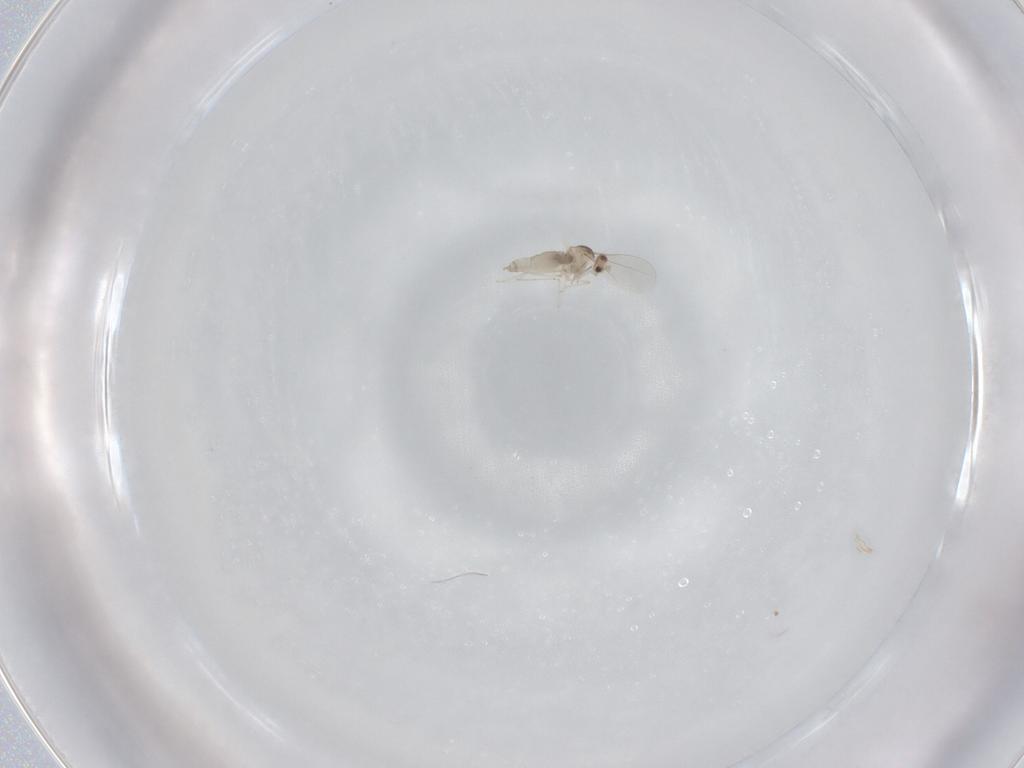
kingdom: Animalia
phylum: Arthropoda
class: Insecta
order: Diptera
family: Cecidomyiidae
